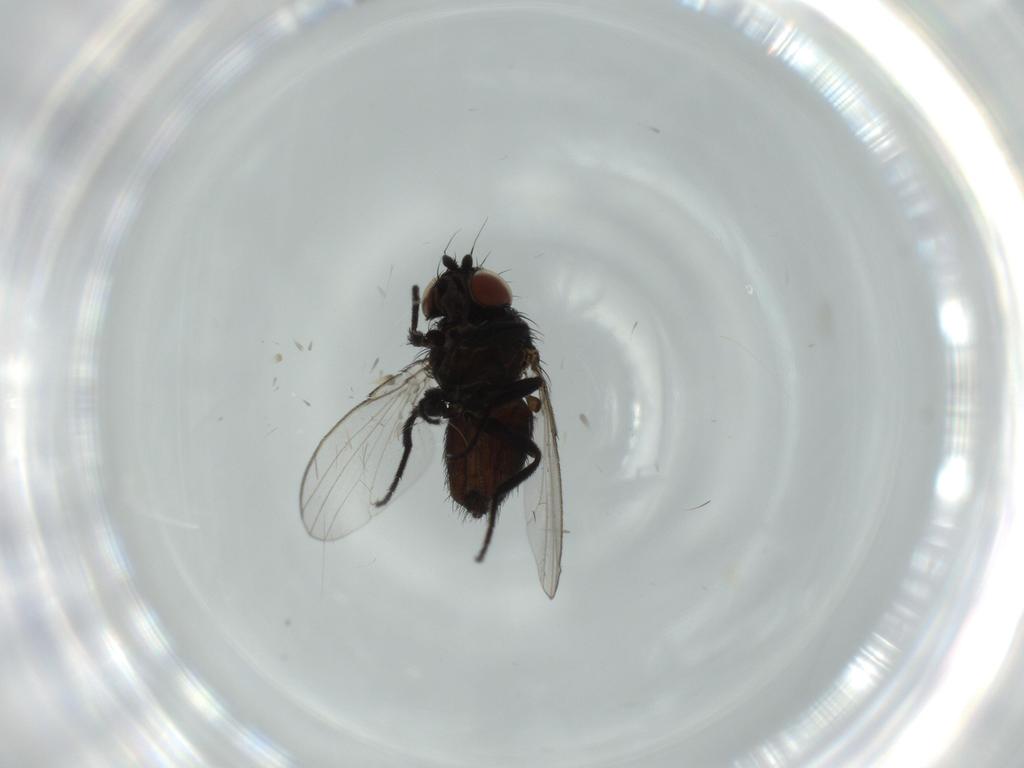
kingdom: Animalia
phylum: Arthropoda
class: Insecta
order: Diptera
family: Milichiidae
